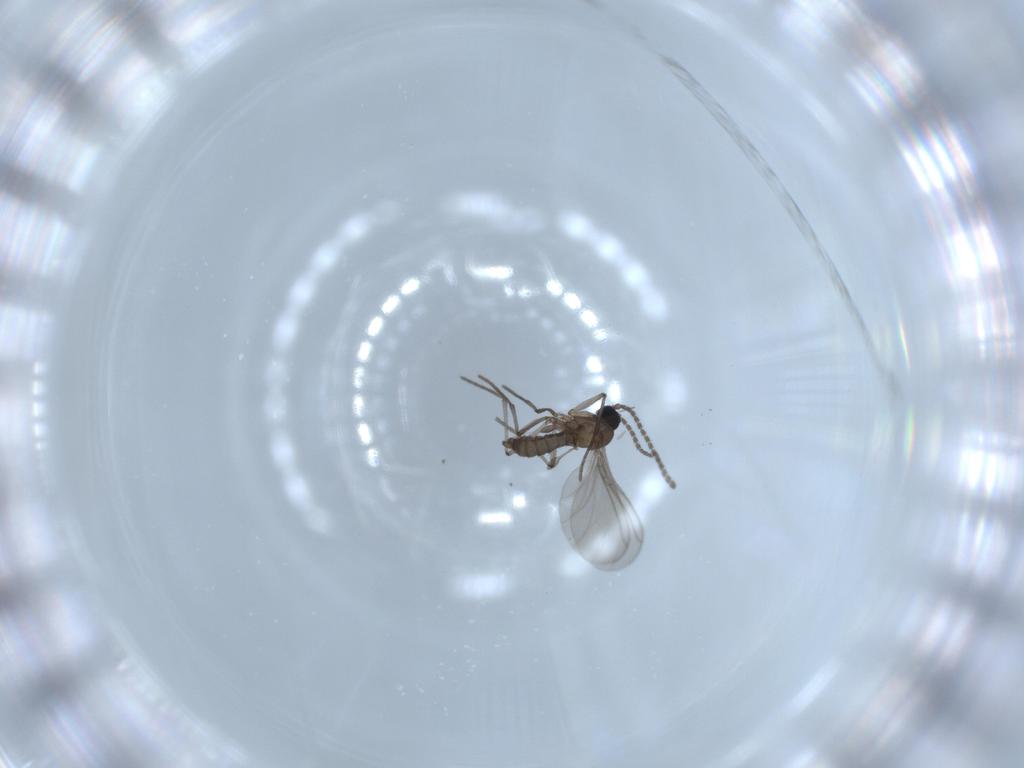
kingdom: Animalia
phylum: Arthropoda
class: Insecta
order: Diptera
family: Sciaridae
